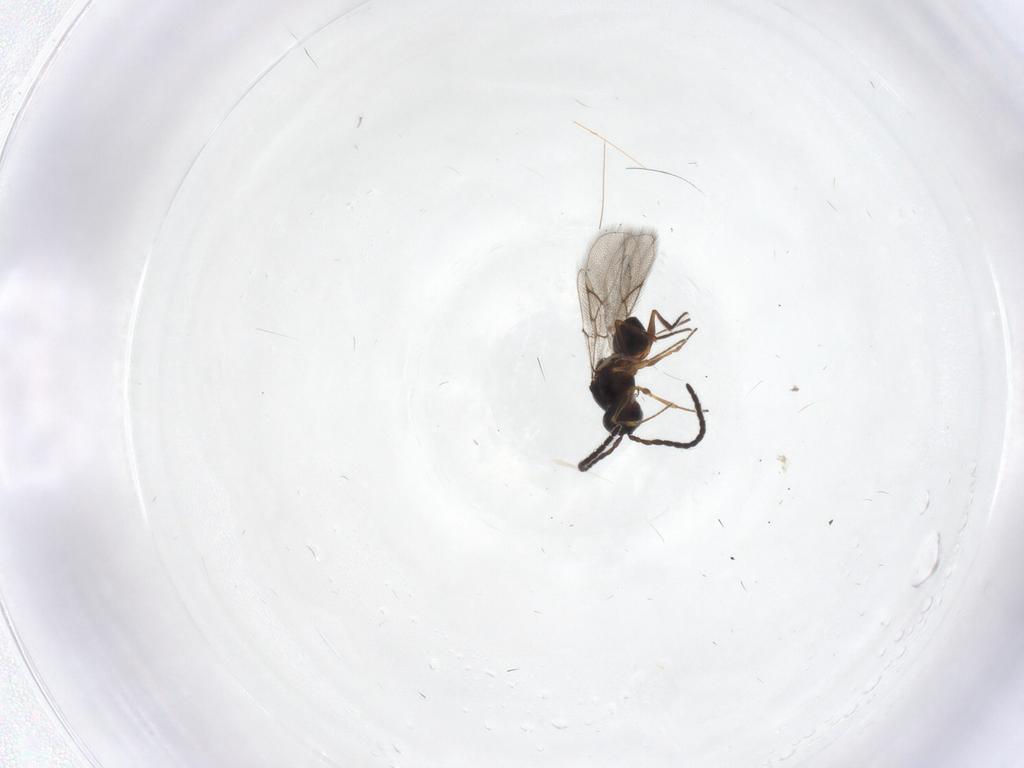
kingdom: Animalia
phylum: Arthropoda
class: Insecta
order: Hymenoptera
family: Figitidae
